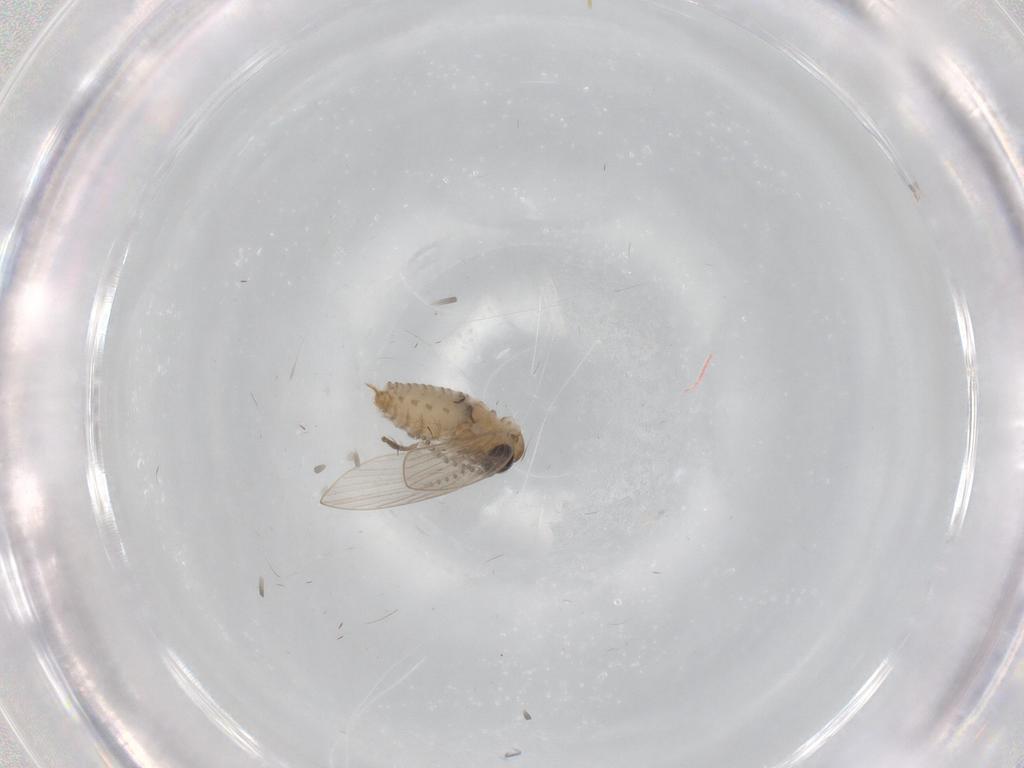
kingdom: Animalia
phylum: Arthropoda
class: Insecta
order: Diptera
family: Psychodidae
